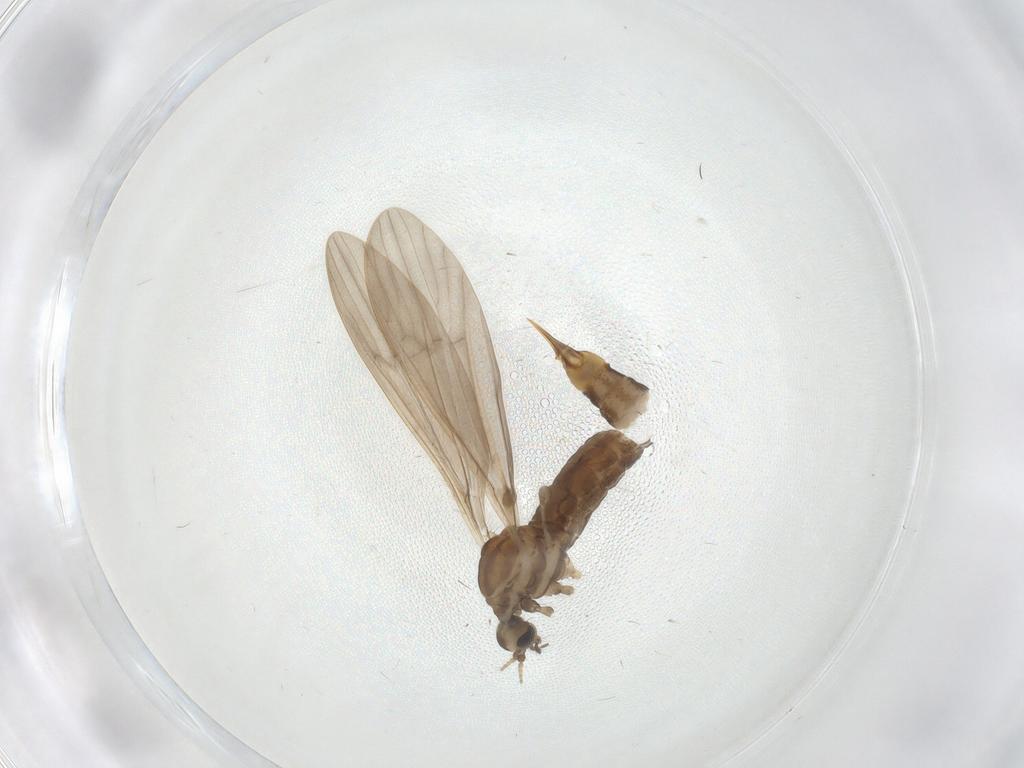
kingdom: Animalia
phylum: Arthropoda
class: Insecta
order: Diptera
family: Limoniidae
